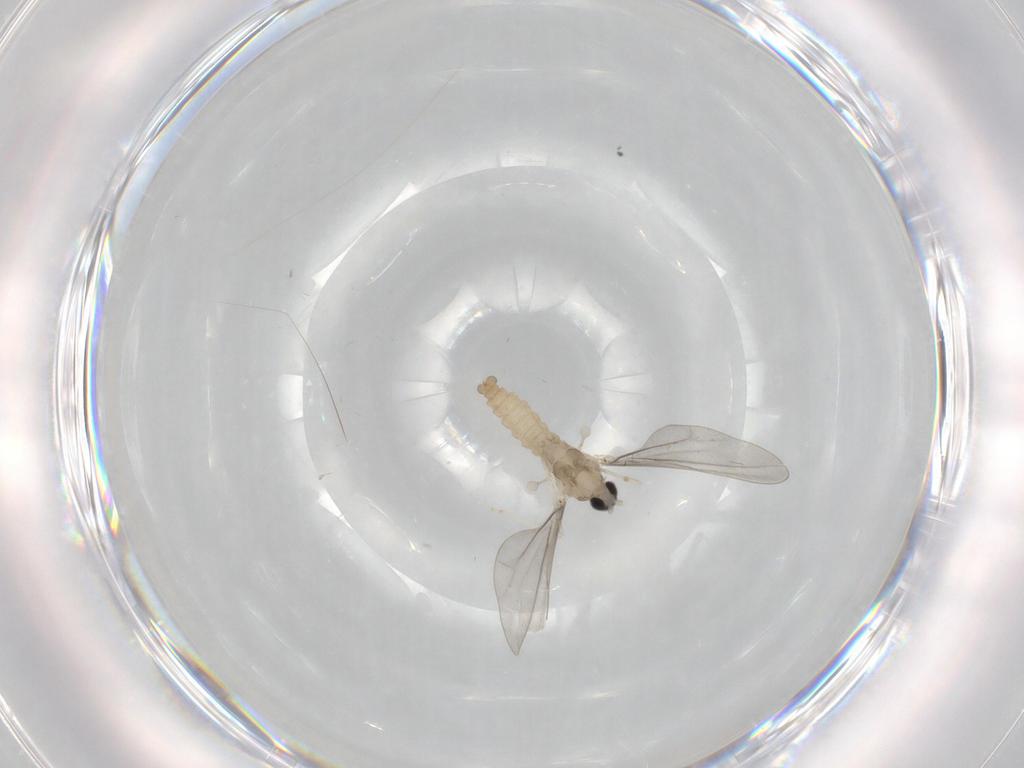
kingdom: Animalia
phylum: Arthropoda
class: Insecta
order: Diptera
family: Cecidomyiidae
